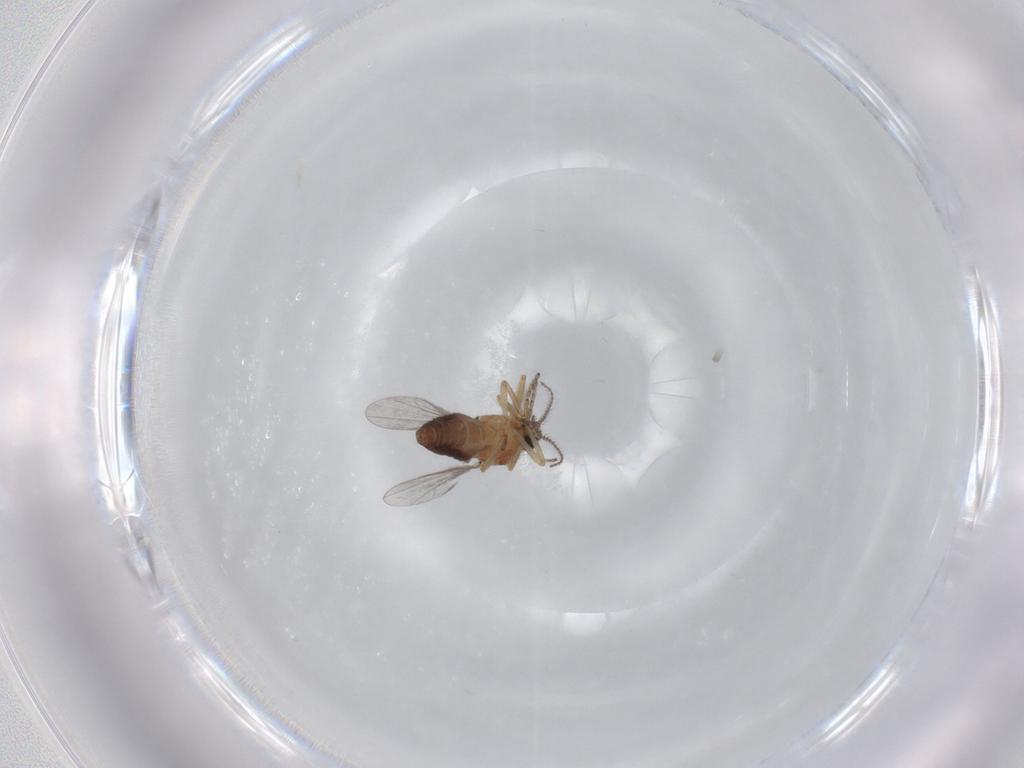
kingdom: Animalia
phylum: Arthropoda
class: Insecta
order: Diptera
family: Ceratopogonidae
